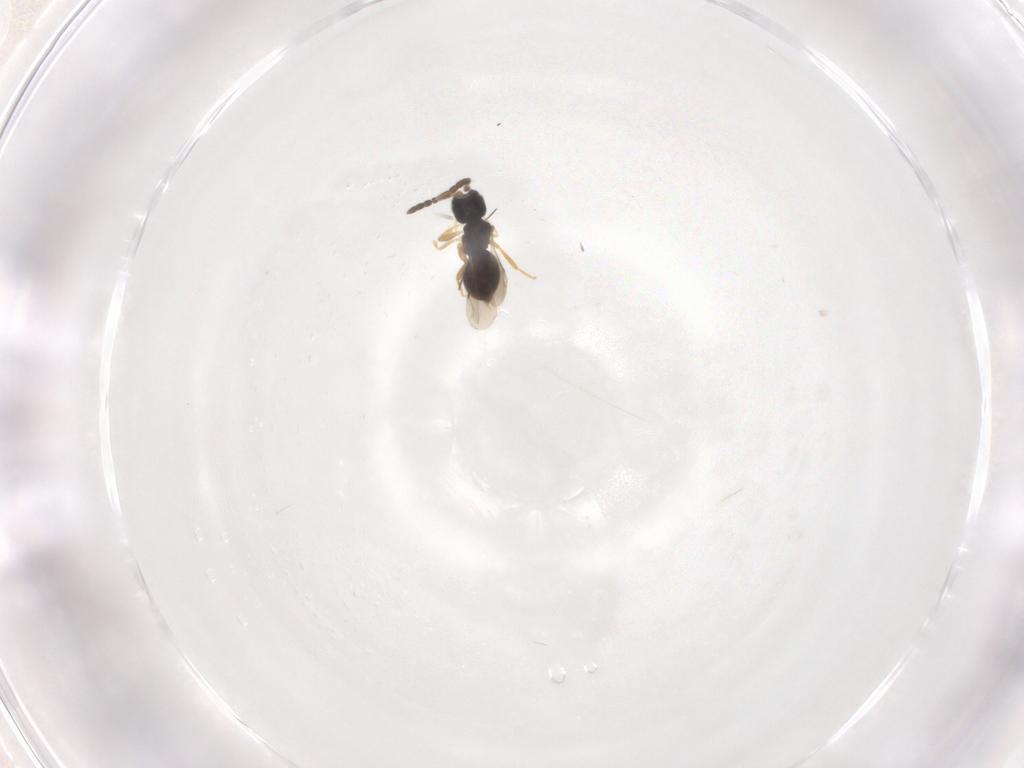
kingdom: Animalia
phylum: Arthropoda
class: Insecta
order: Hymenoptera
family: Ceraphronidae
